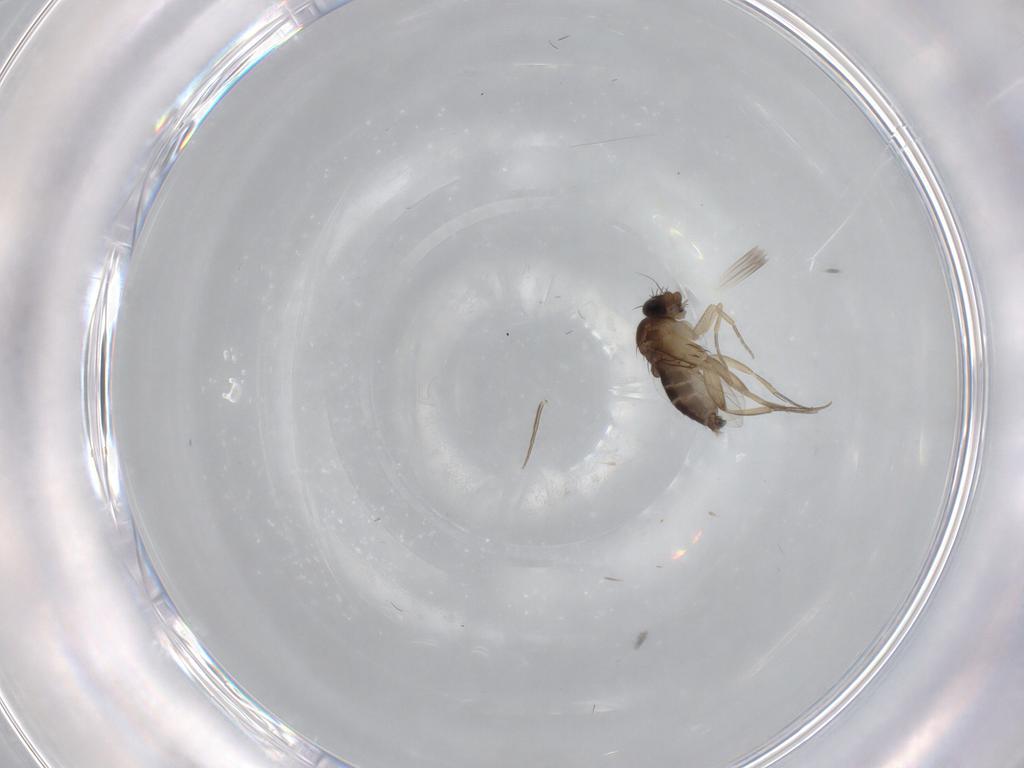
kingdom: Animalia
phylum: Arthropoda
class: Insecta
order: Diptera
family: Phoridae
